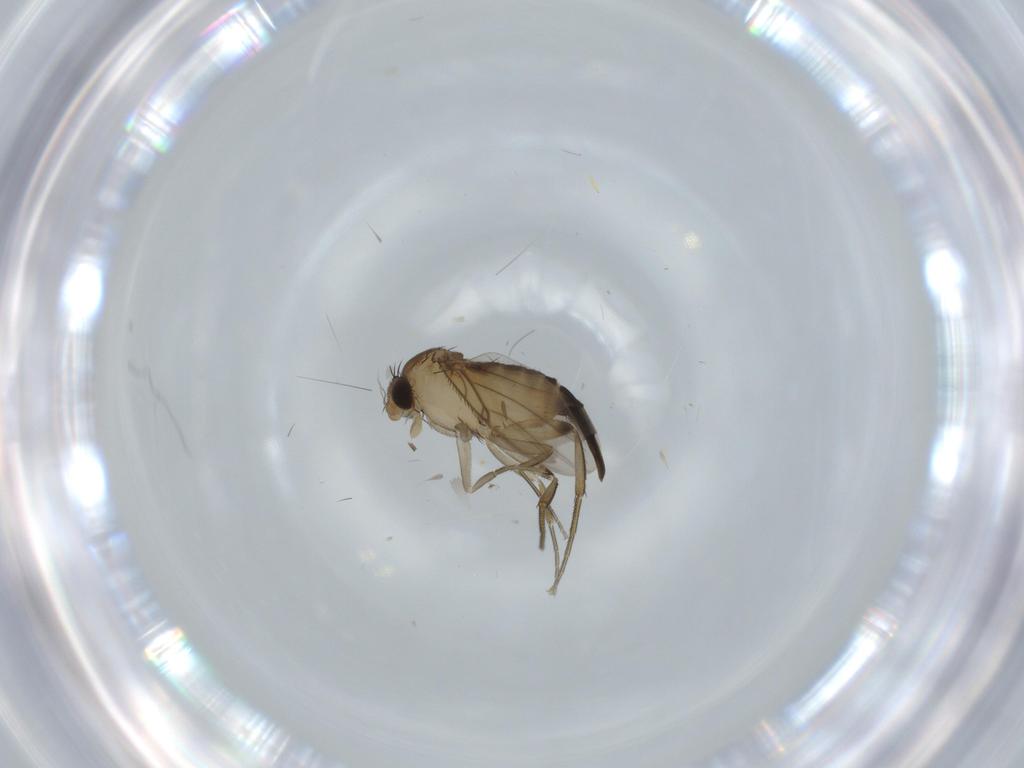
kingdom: Animalia
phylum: Arthropoda
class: Insecta
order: Diptera
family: Phoridae
